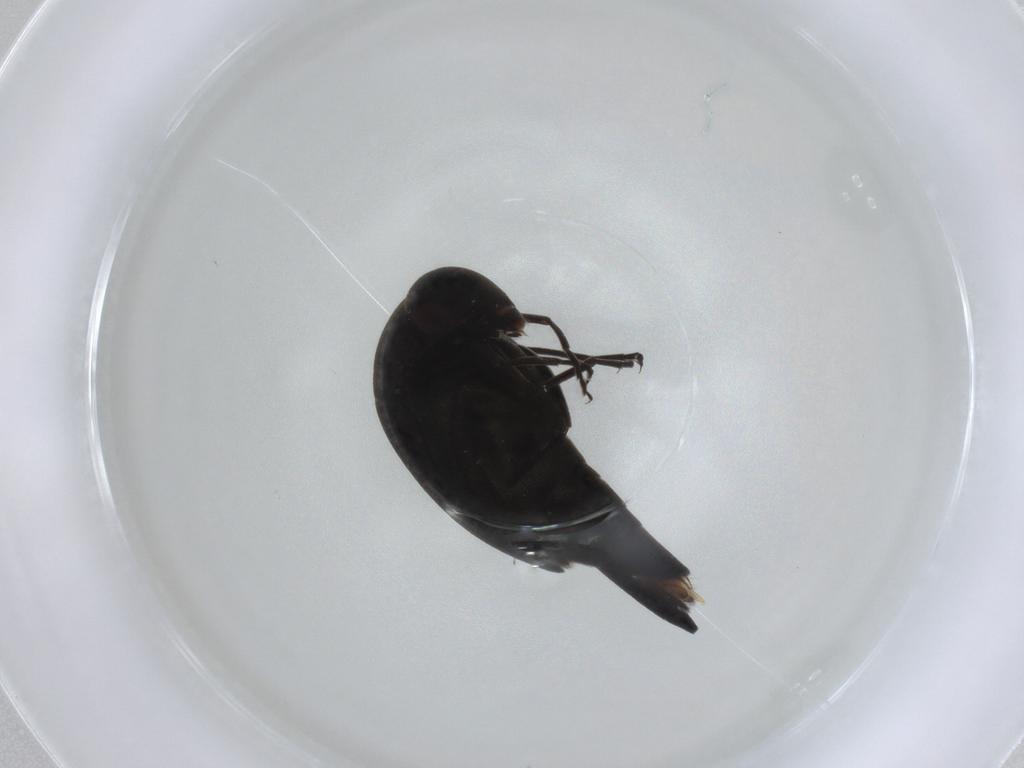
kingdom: Animalia
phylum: Arthropoda
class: Insecta
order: Coleoptera
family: Mordellidae
